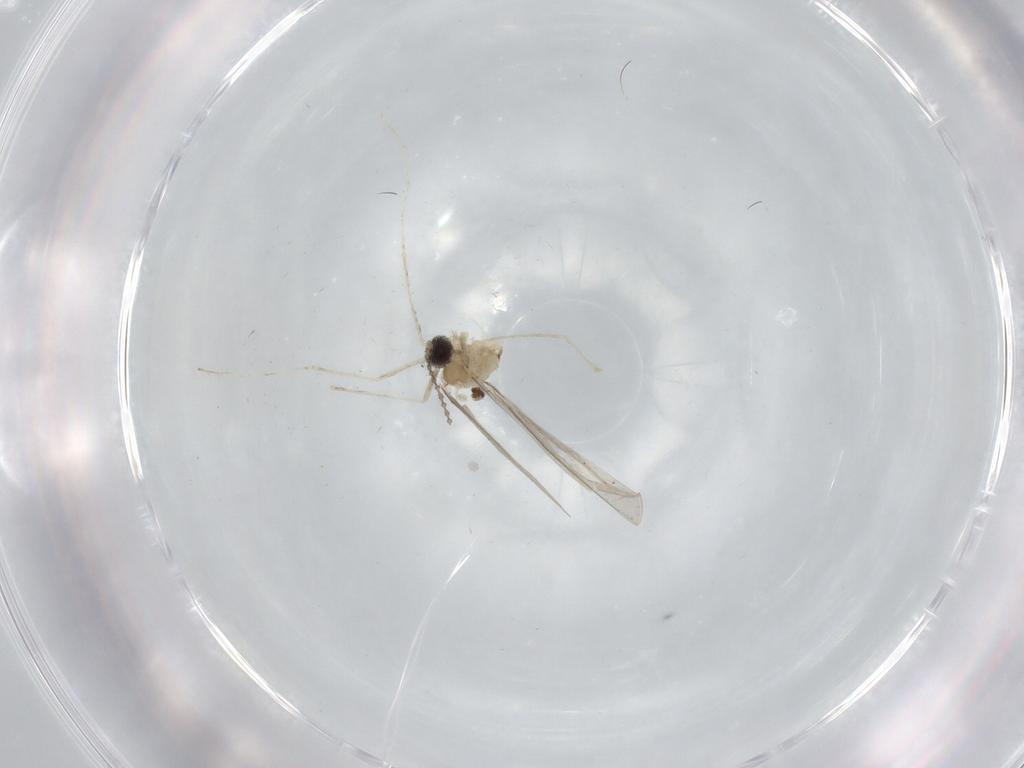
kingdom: Animalia
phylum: Arthropoda
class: Insecta
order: Diptera
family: Cecidomyiidae
